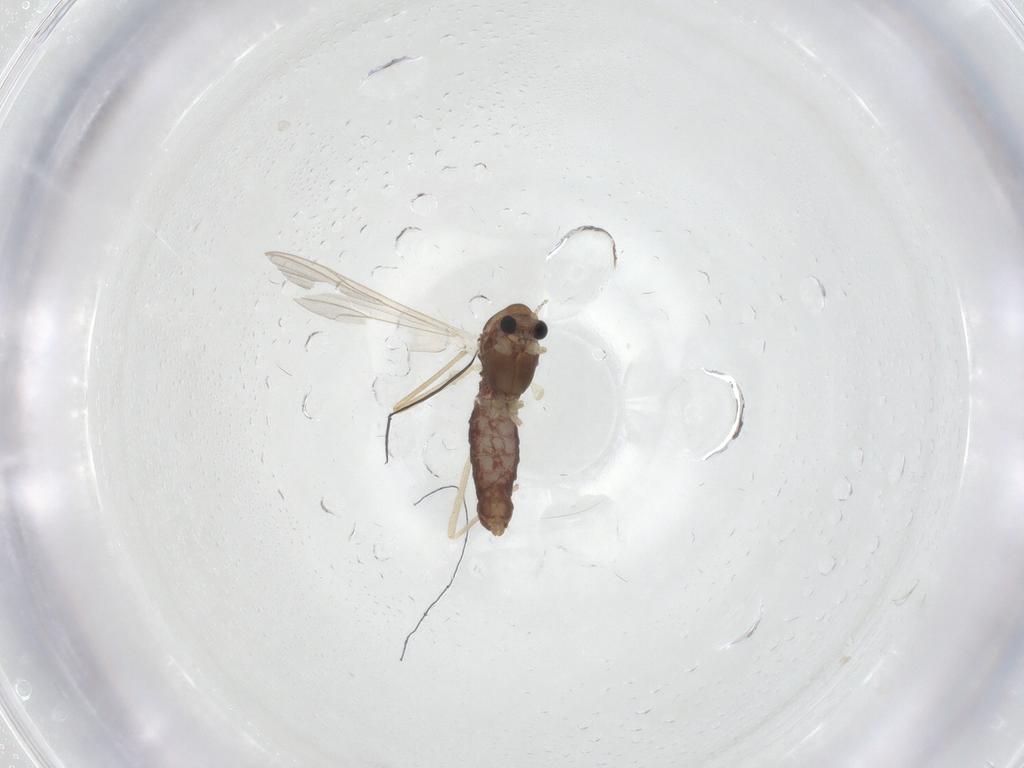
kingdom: Animalia
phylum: Arthropoda
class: Insecta
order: Diptera
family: Chironomidae
